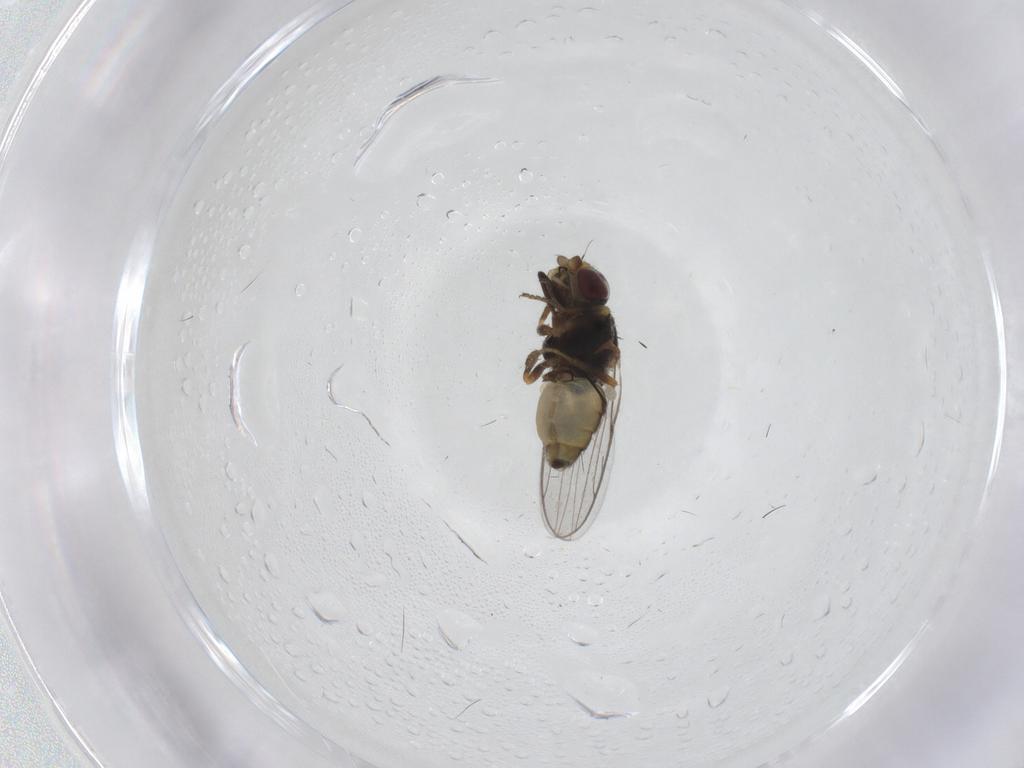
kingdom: Animalia
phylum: Arthropoda
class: Insecta
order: Diptera
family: Chloropidae
